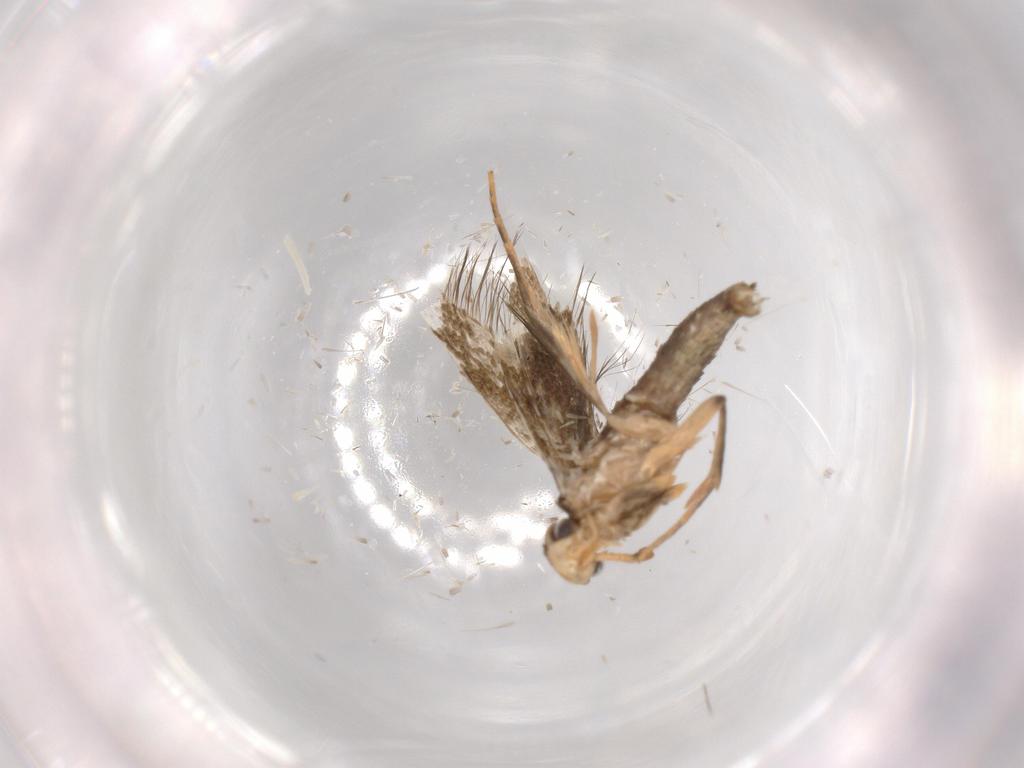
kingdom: Animalia
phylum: Arthropoda
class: Insecta
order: Lepidoptera
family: Tineidae
